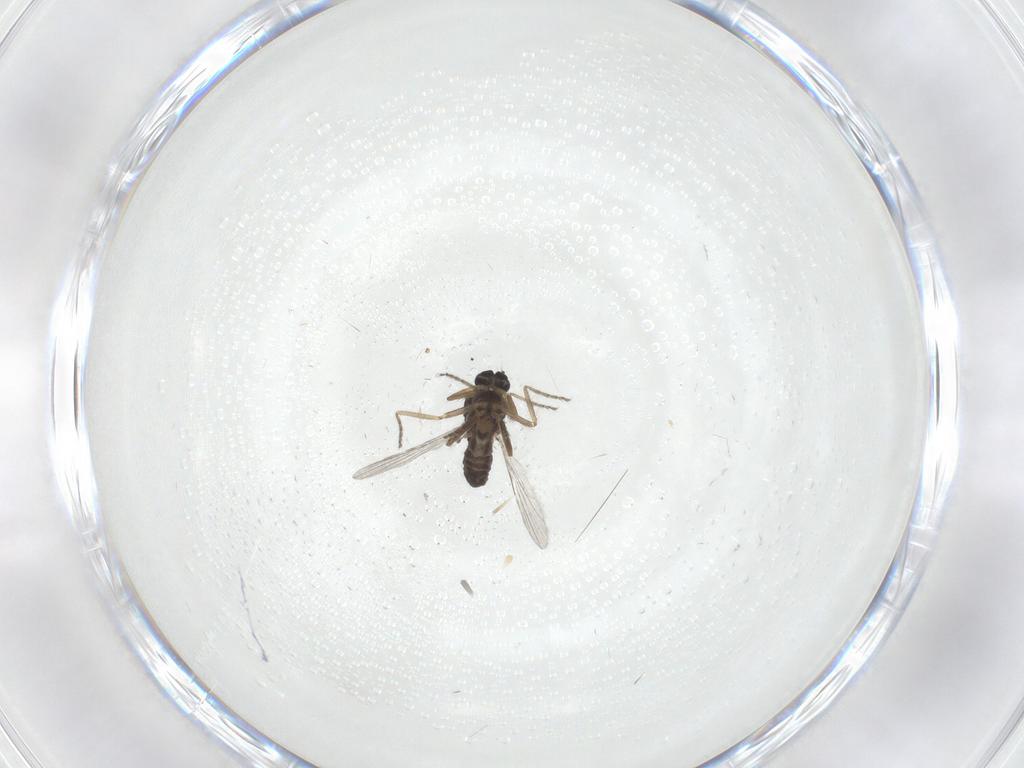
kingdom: Animalia
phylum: Arthropoda
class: Insecta
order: Diptera
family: Ceratopogonidae
